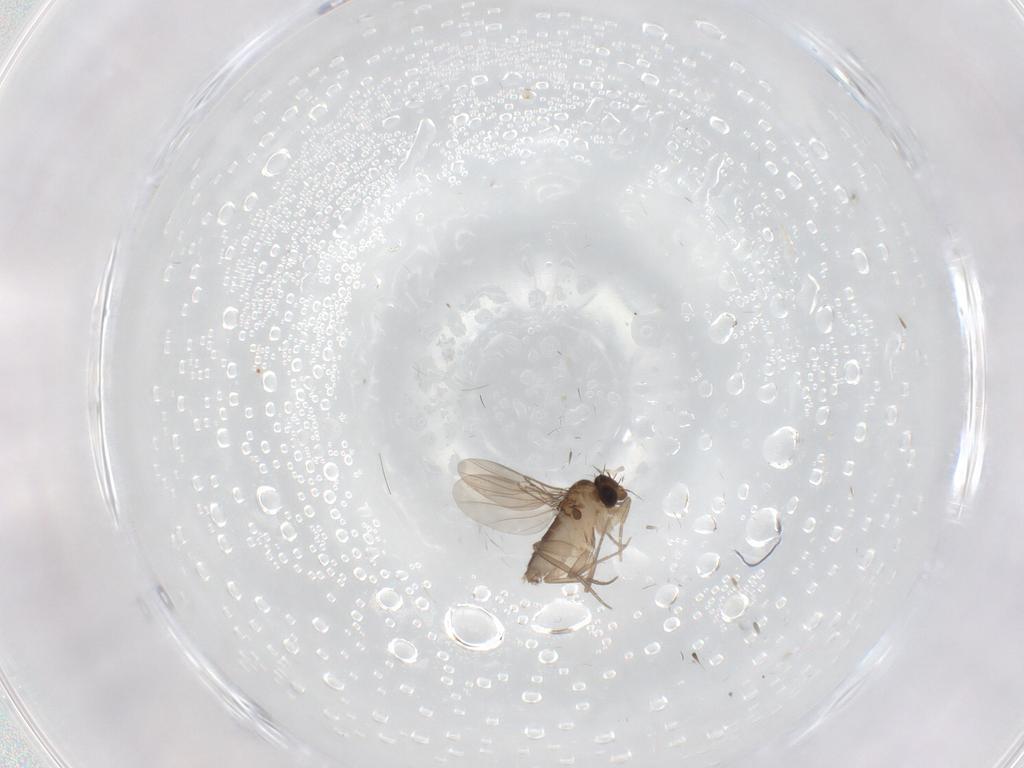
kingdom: Animalia
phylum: Arthropoda
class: Insecta
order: Diptera
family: Phoridae
